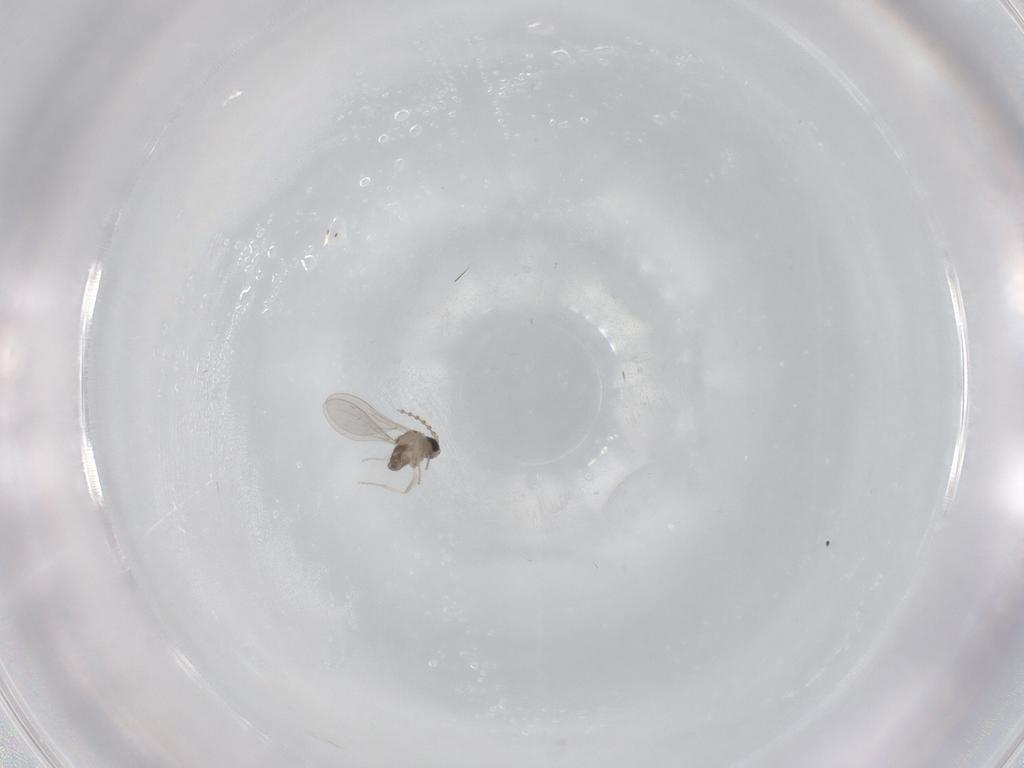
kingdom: Animalia
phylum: Arthropoda
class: Insecta
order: Diptera
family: Cecidomyiidae
